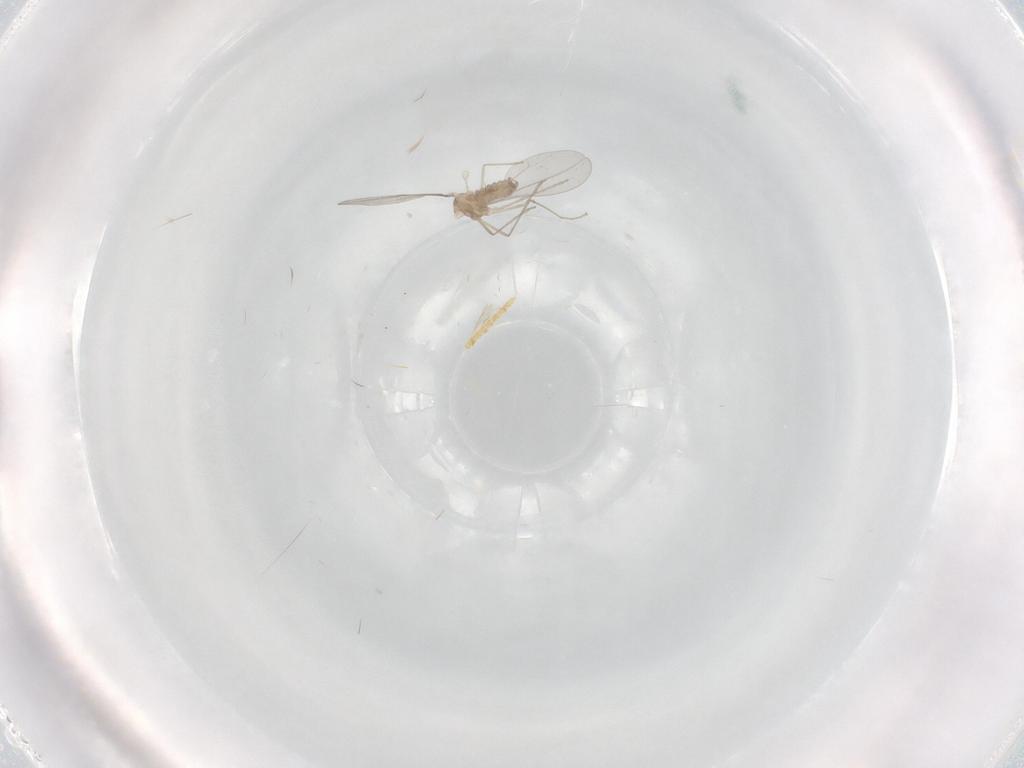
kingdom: Animalia
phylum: Arthropoda
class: Insecta
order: Diptera
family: Cecidomyiidae
